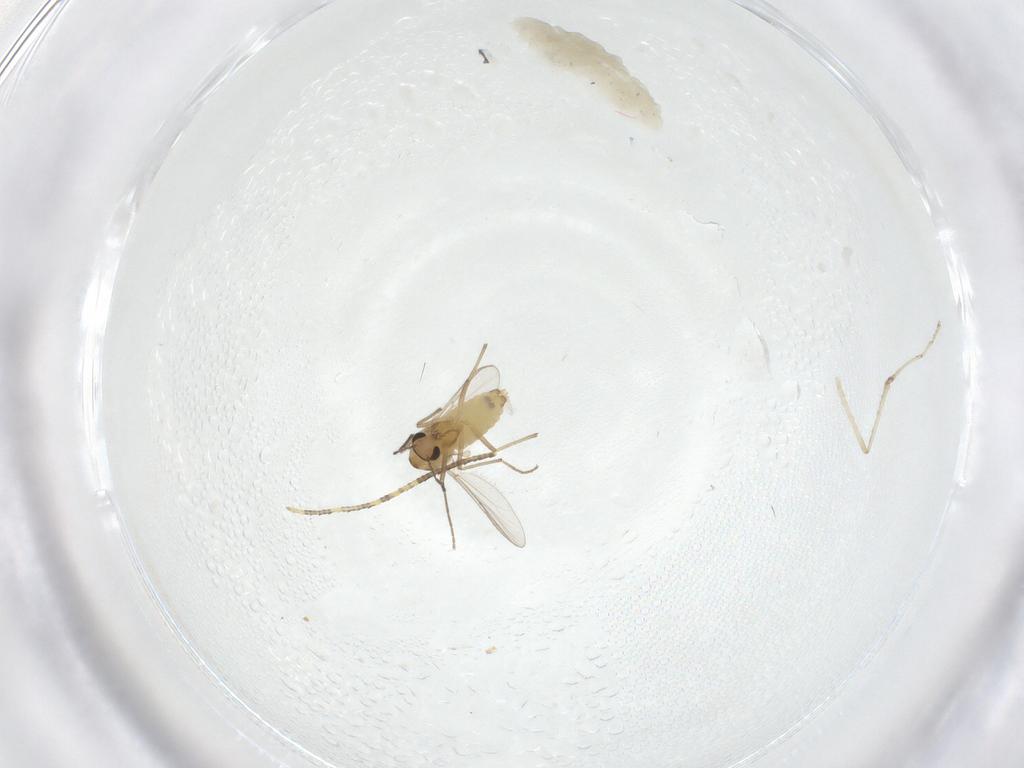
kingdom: Animalia
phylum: Arthropoda
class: Insecta
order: Diptera
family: Chironomidae
